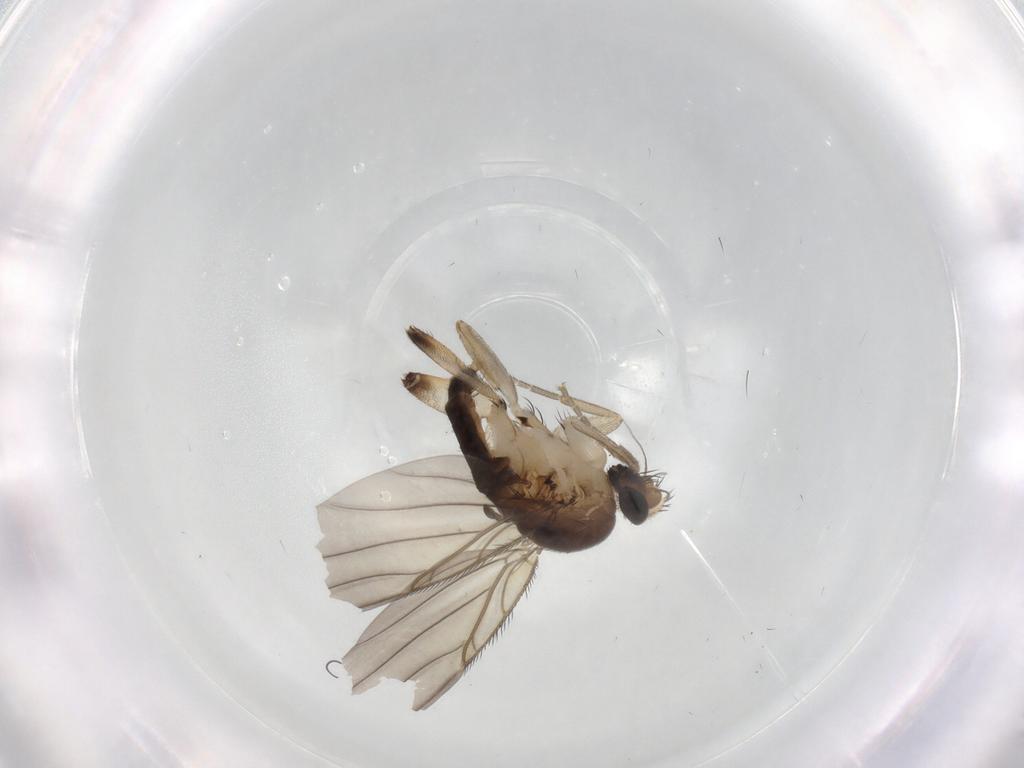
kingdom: Animalia
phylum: Arthropoda
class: Insecta
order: Diptera
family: Phoridae
